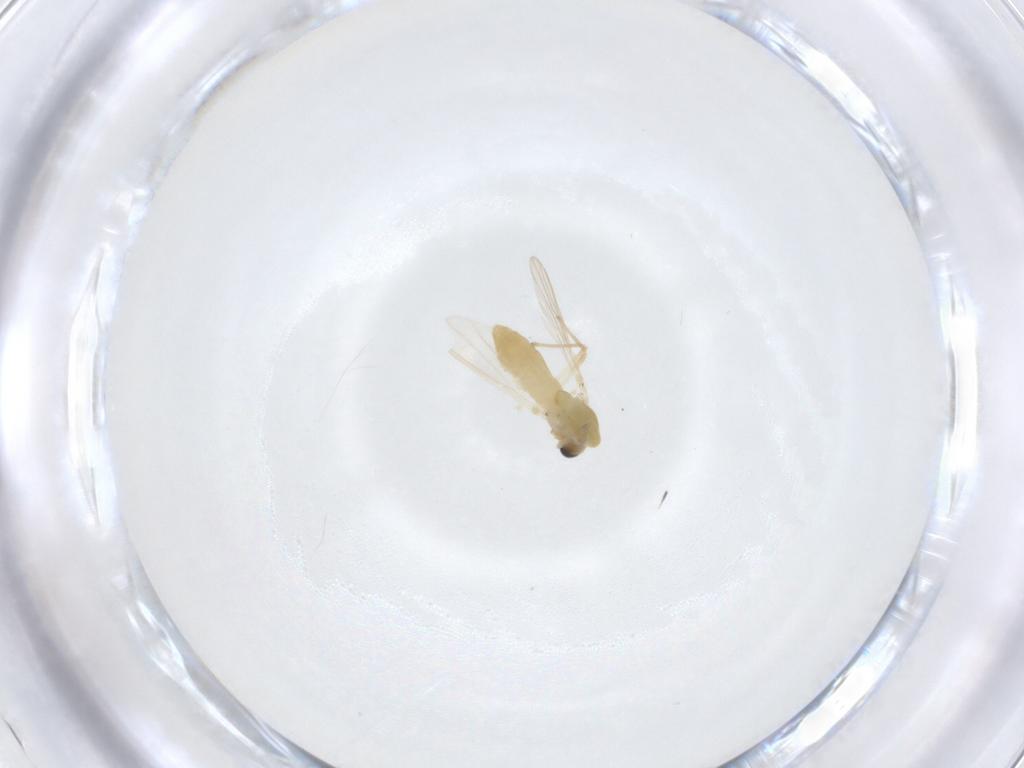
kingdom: Animalia
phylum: Arthropoda
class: Insecta
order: Diptera
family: Chironomidae
